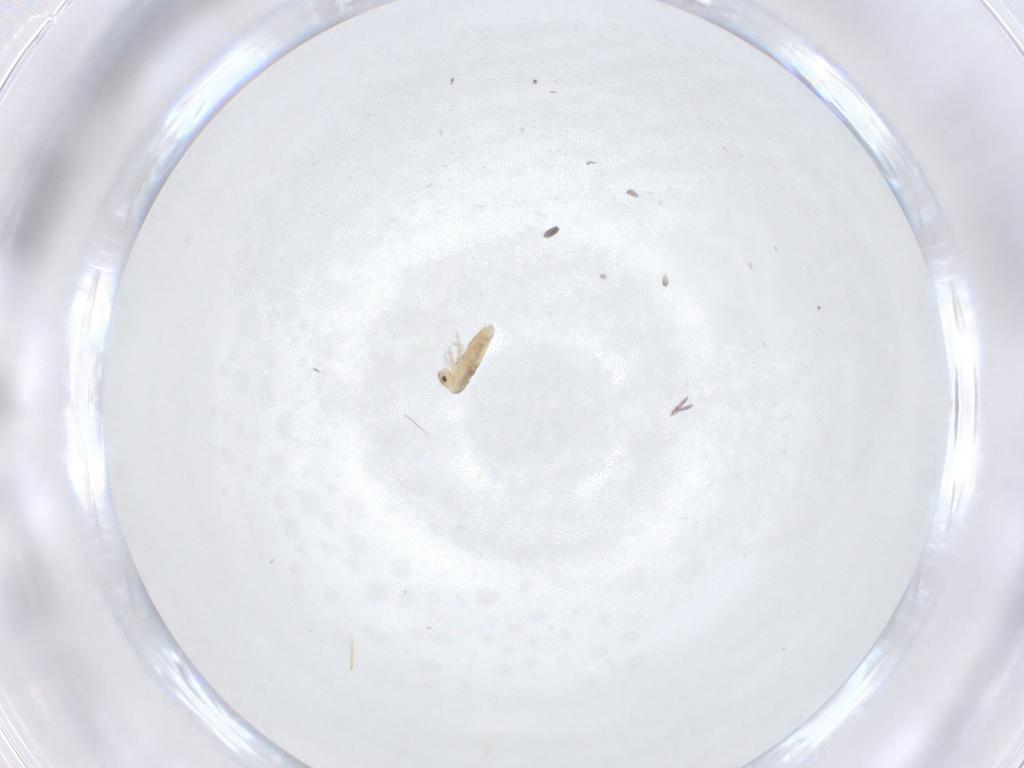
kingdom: Animalia
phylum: Arthropoda
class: Collembola
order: Entomobryomorpha
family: Entomobryidae
